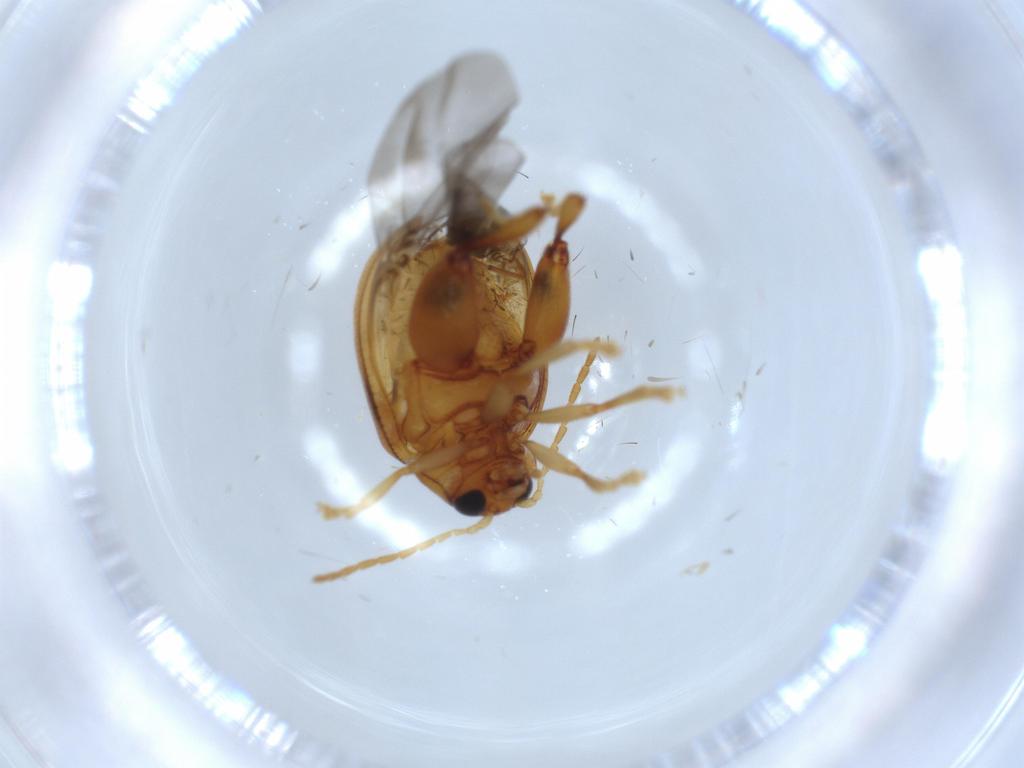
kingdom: Animalia
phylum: Arthropoda
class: Insecta
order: Coleoptera
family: Chrysomelidae
